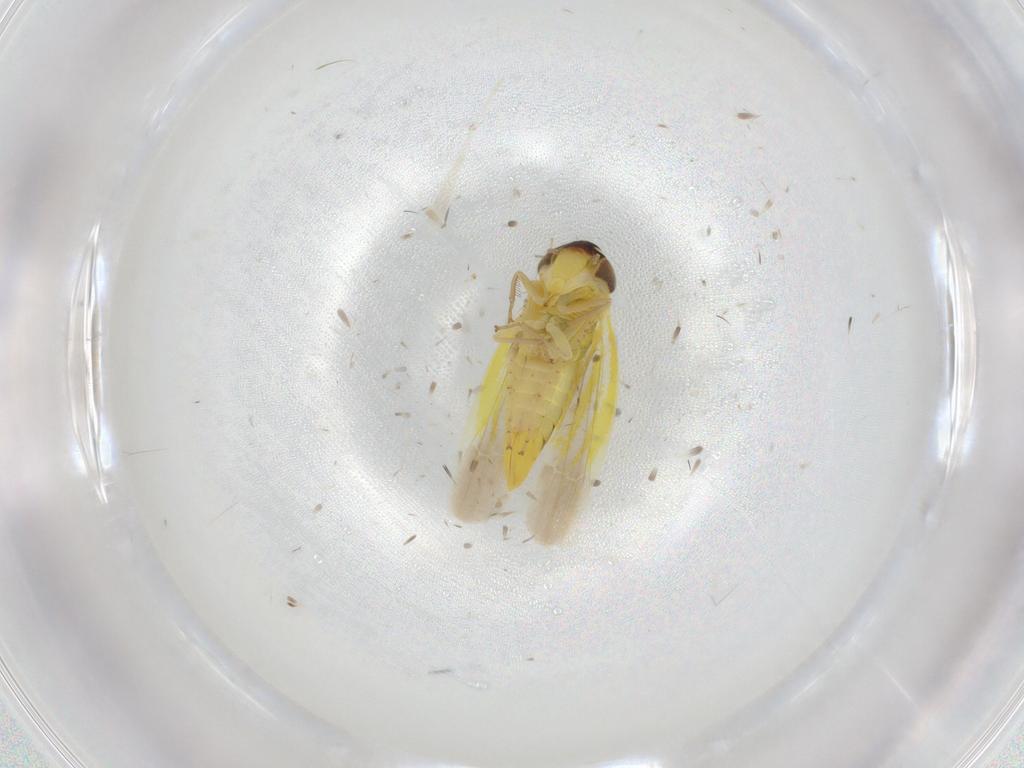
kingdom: Animalia
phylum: Arthropoda
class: Insecta
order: Hemiptera
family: Cicadellidae
